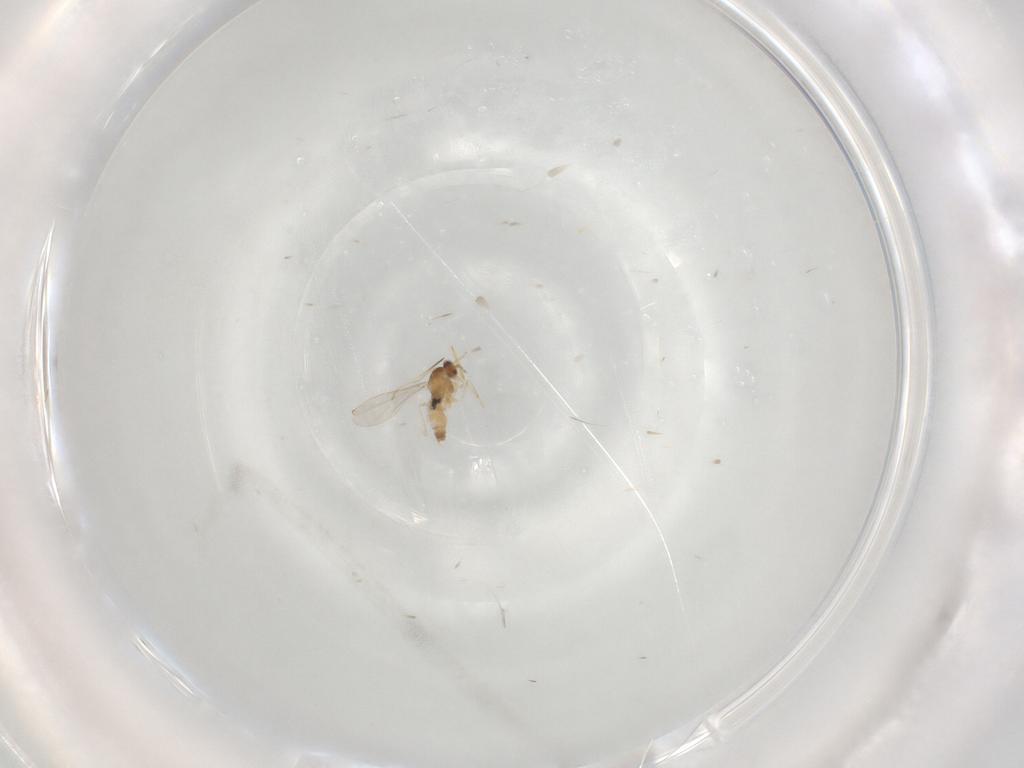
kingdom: Animalia
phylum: Arthropoda
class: Insecta
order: Diptera
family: Cecidomyiidae
